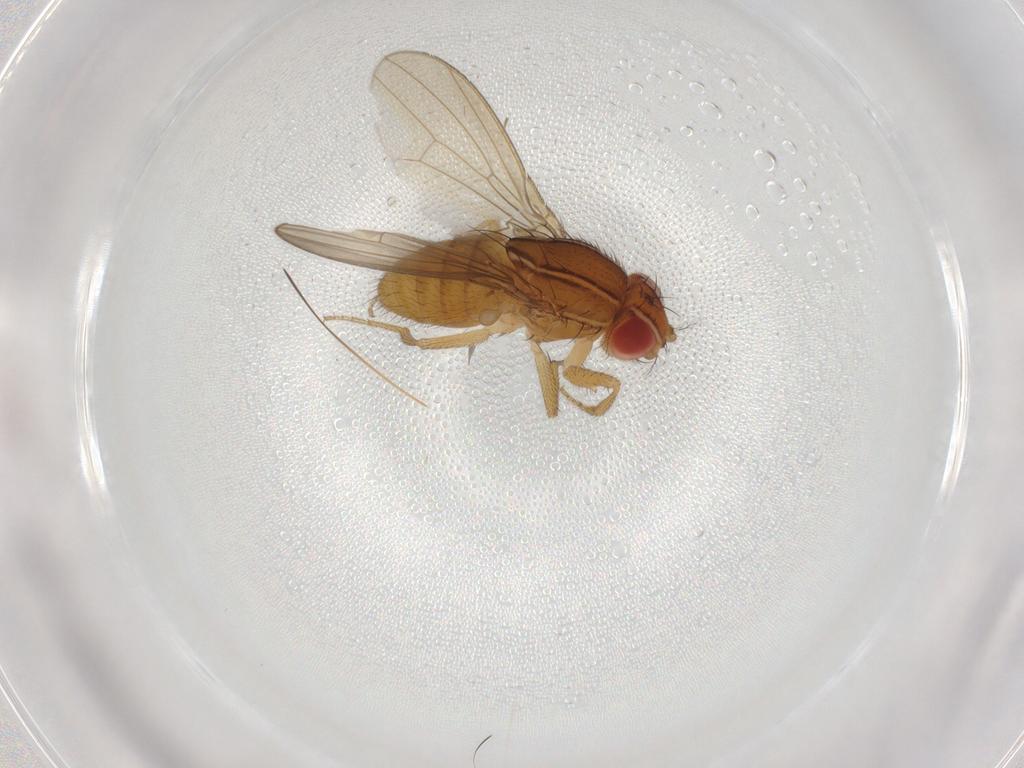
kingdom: Animalia
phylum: Arthropoda
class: Insecta
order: Diptera
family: Drosophilidae
